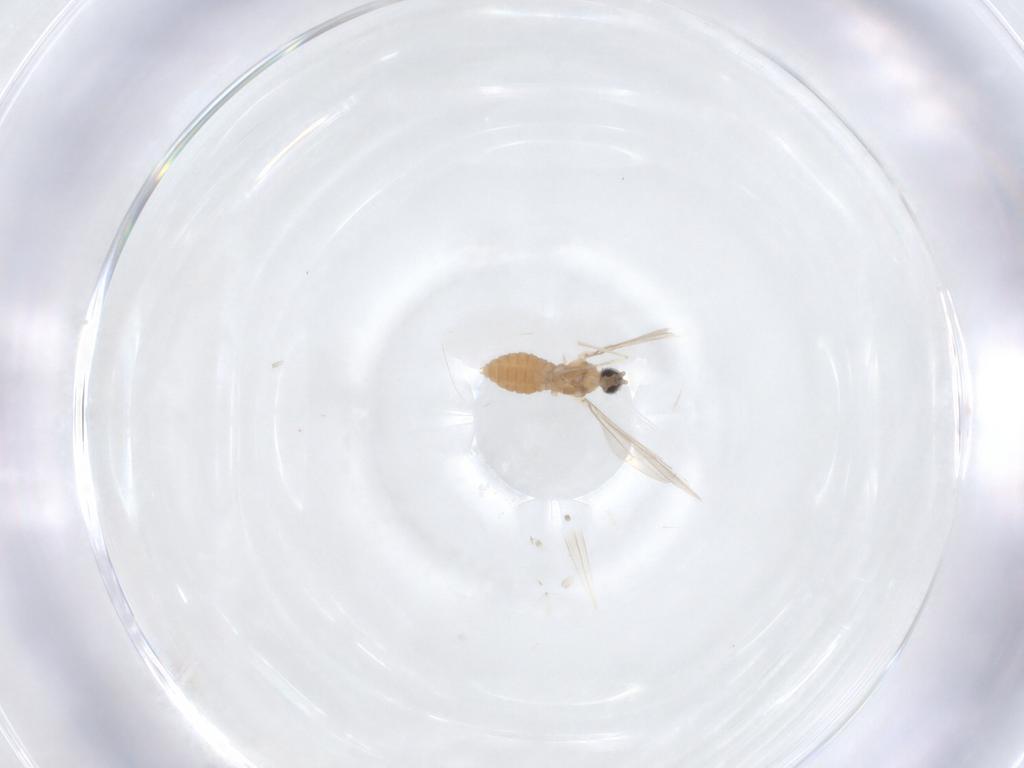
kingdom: Animalia
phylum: Arthropoda
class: Insecta
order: Diptera
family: Cecidomyiidae
